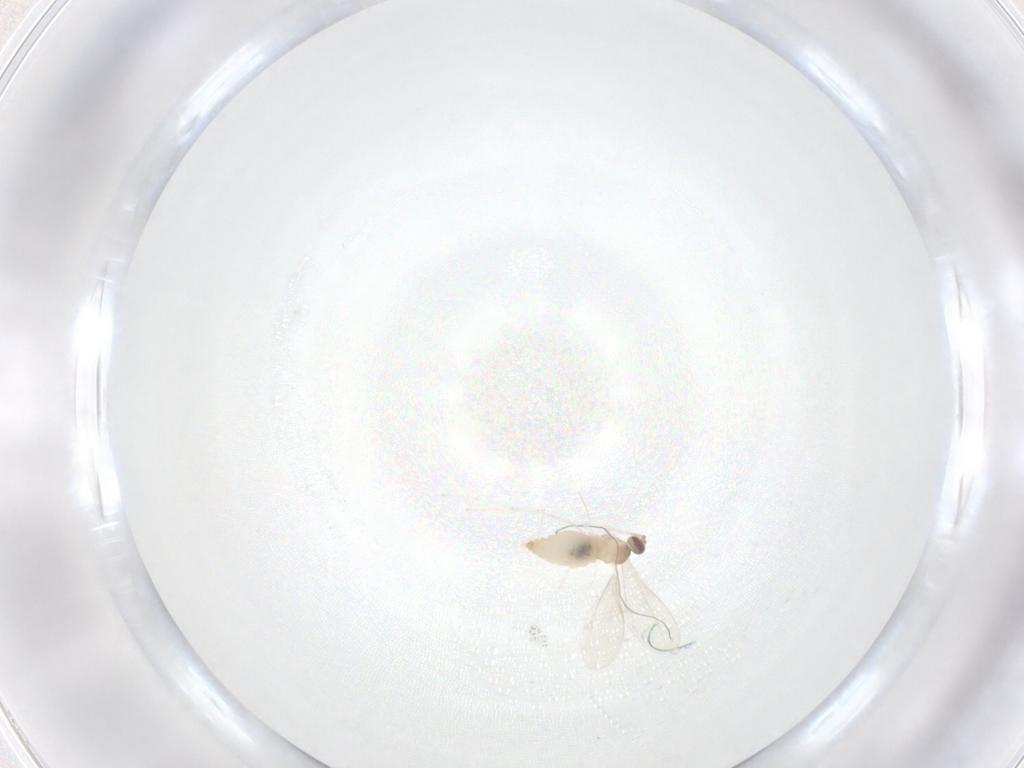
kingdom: Animalia
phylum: Arthropoda
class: Insecta
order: Diptera
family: Cecidomyiidae
